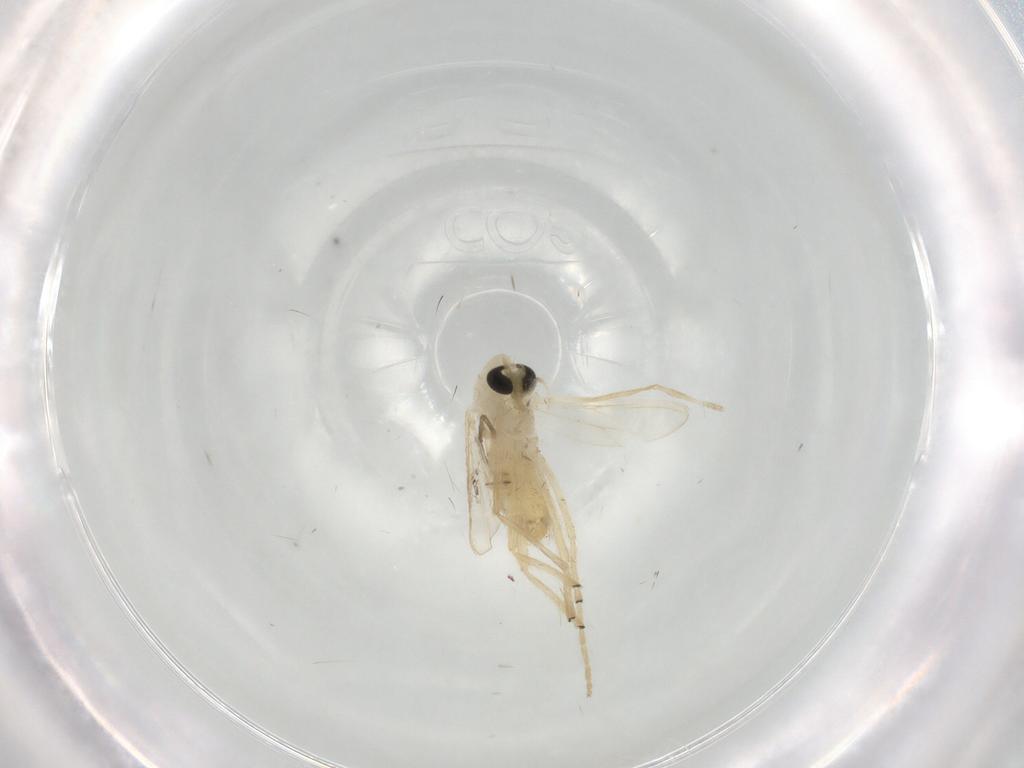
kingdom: Animalia
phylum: Arthropoda
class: Insecta
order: Diptera
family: Chironomidae
